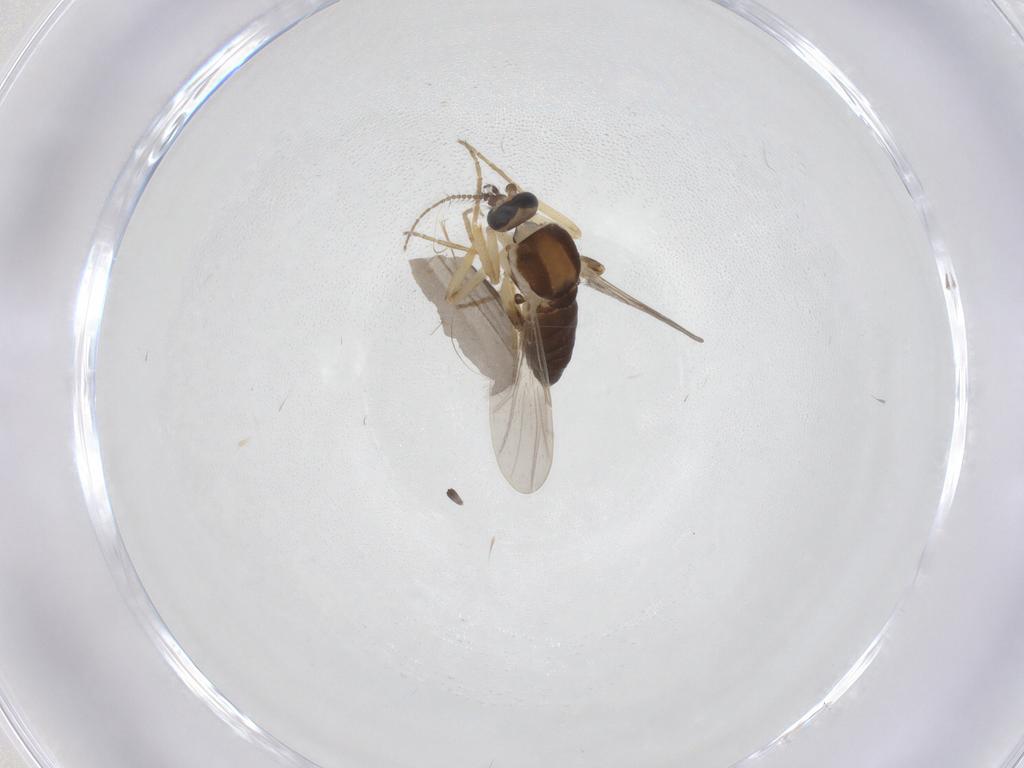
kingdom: Animalia
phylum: Arthropoda
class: Insecta
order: Diptera
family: Ceratopogonidae
